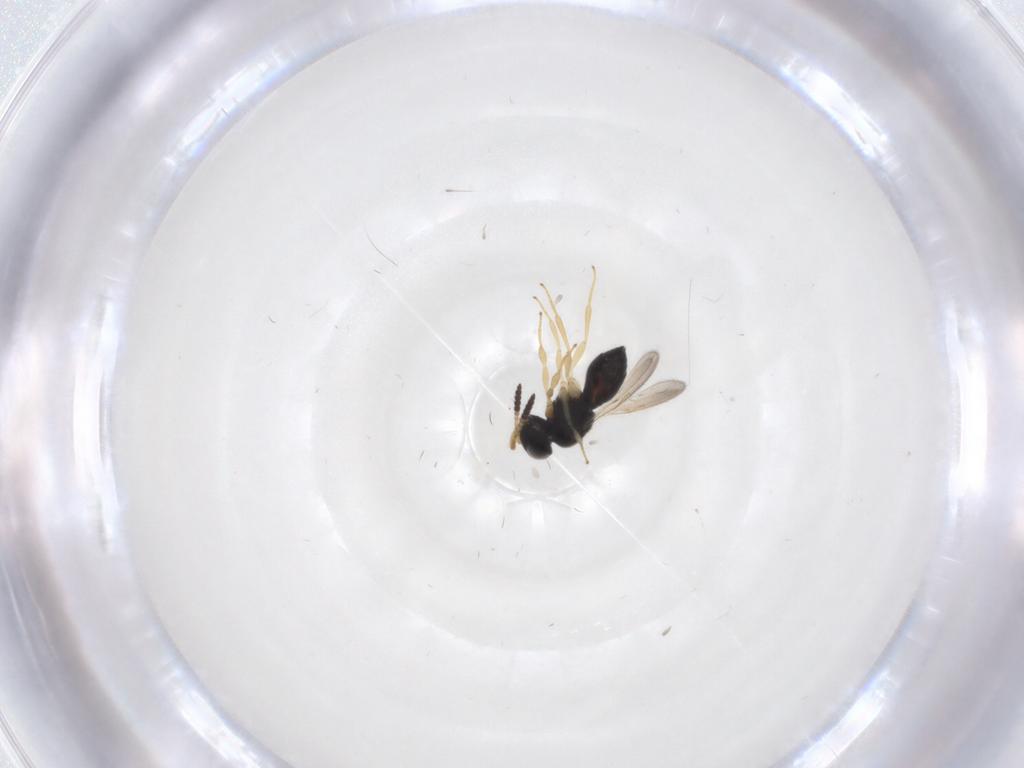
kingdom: Animalia
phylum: Arthropoda
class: Insecta
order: Hymenoptera
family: Scelionidae
